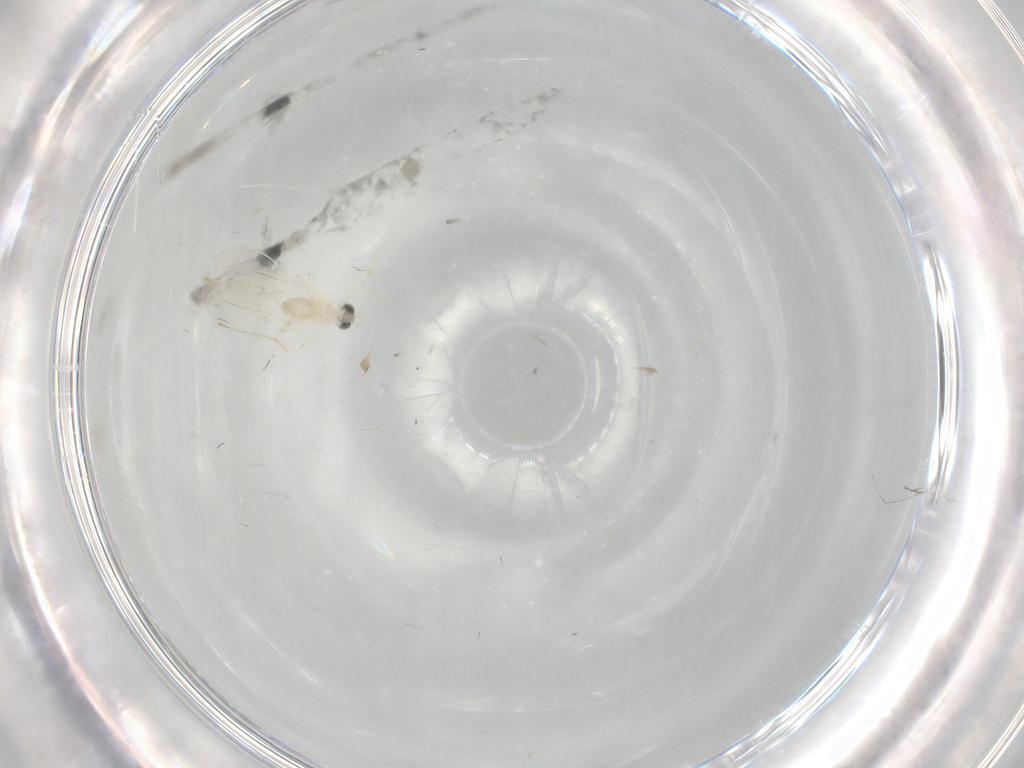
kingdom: Animalia
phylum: Arthropoda
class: Insecta
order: Diptera
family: Cecidomyiidae
